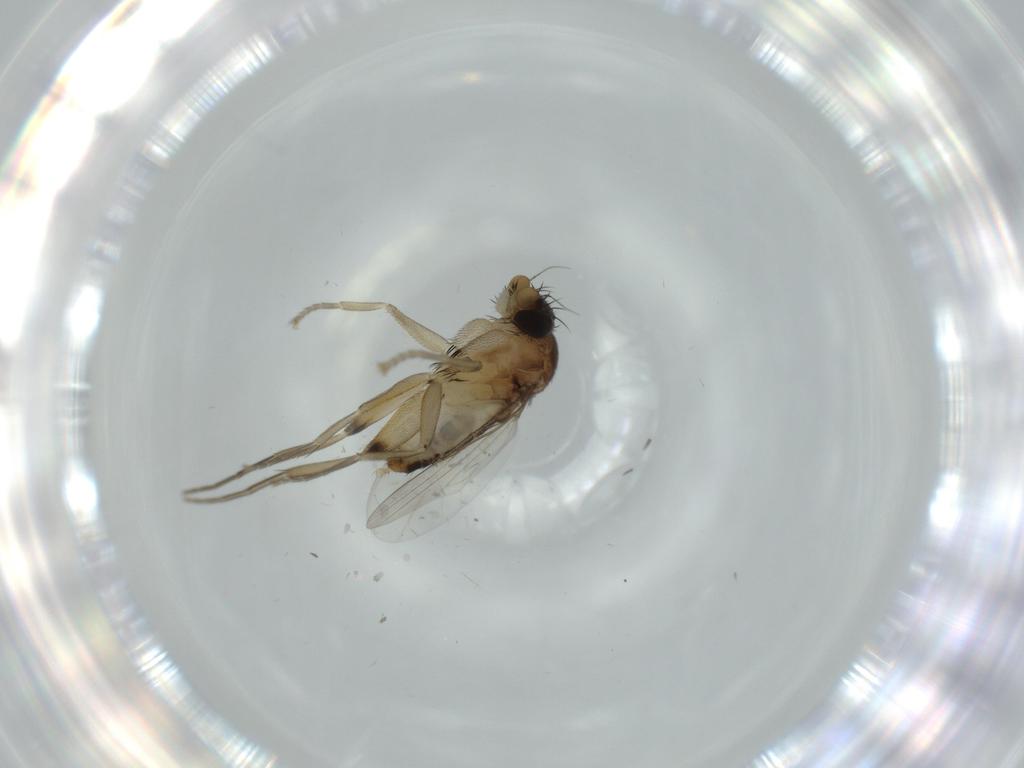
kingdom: Animalia
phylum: Arthropoda
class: Insecta
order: Diptera
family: Phoridae
